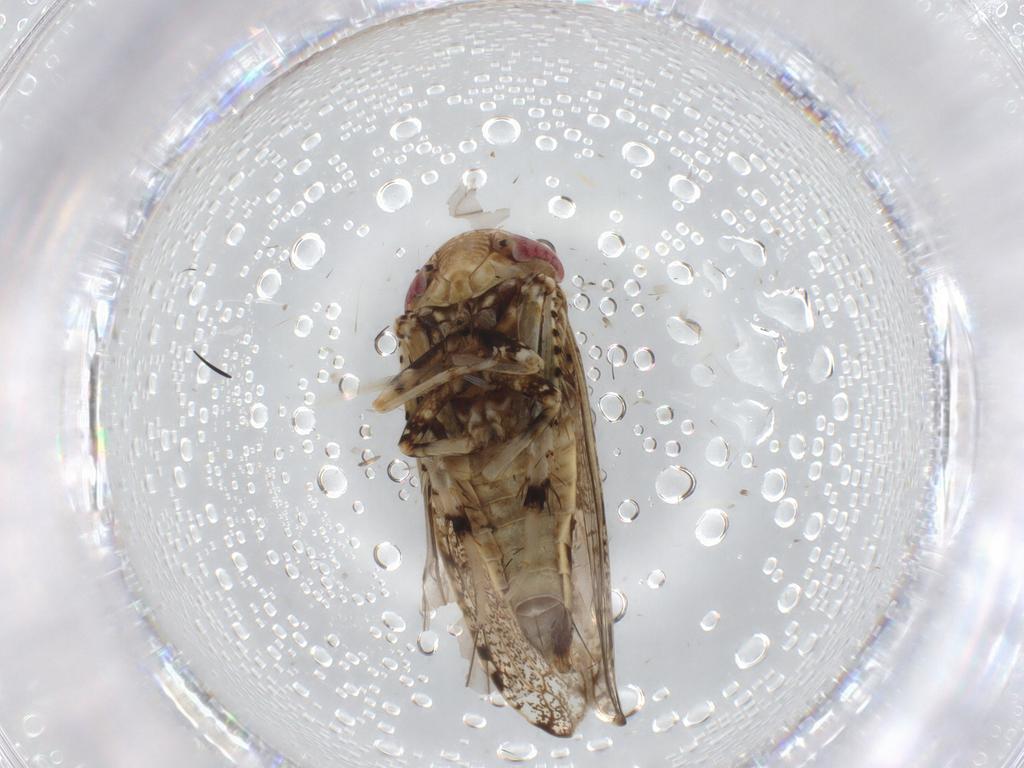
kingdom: Animalia
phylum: Arthropoda
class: Insecta
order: Hemiptera
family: Cicadellidae
